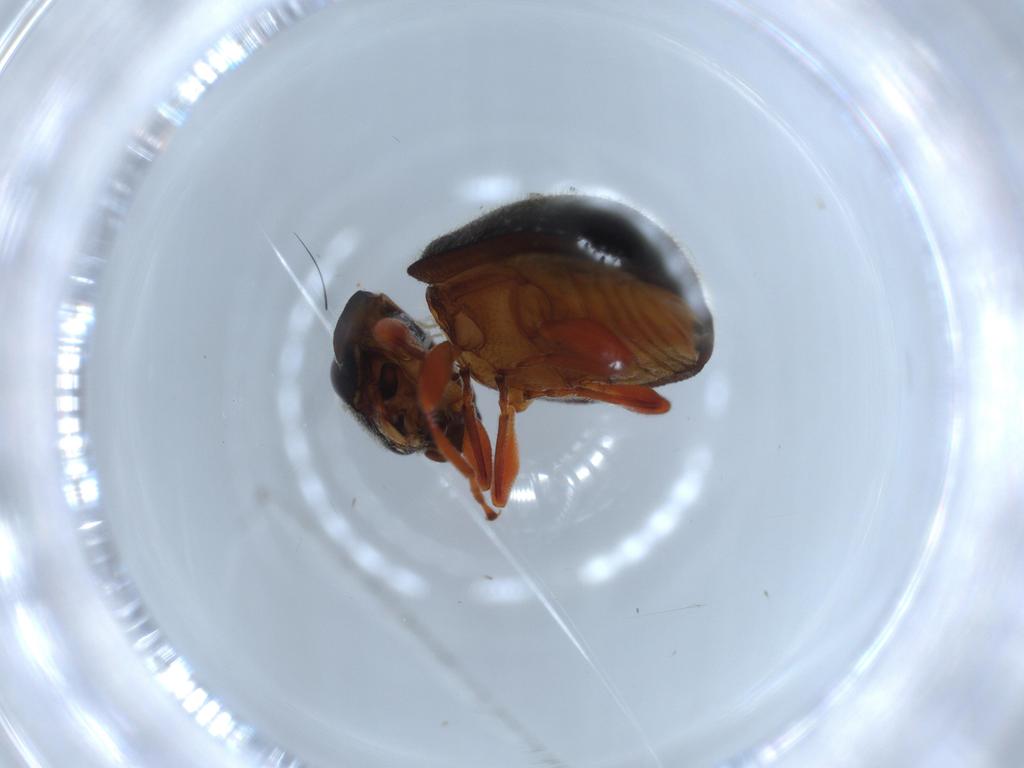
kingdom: Animalia
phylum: Arthropoda
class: Insecta
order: Coleoptera
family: Coccinellidae
